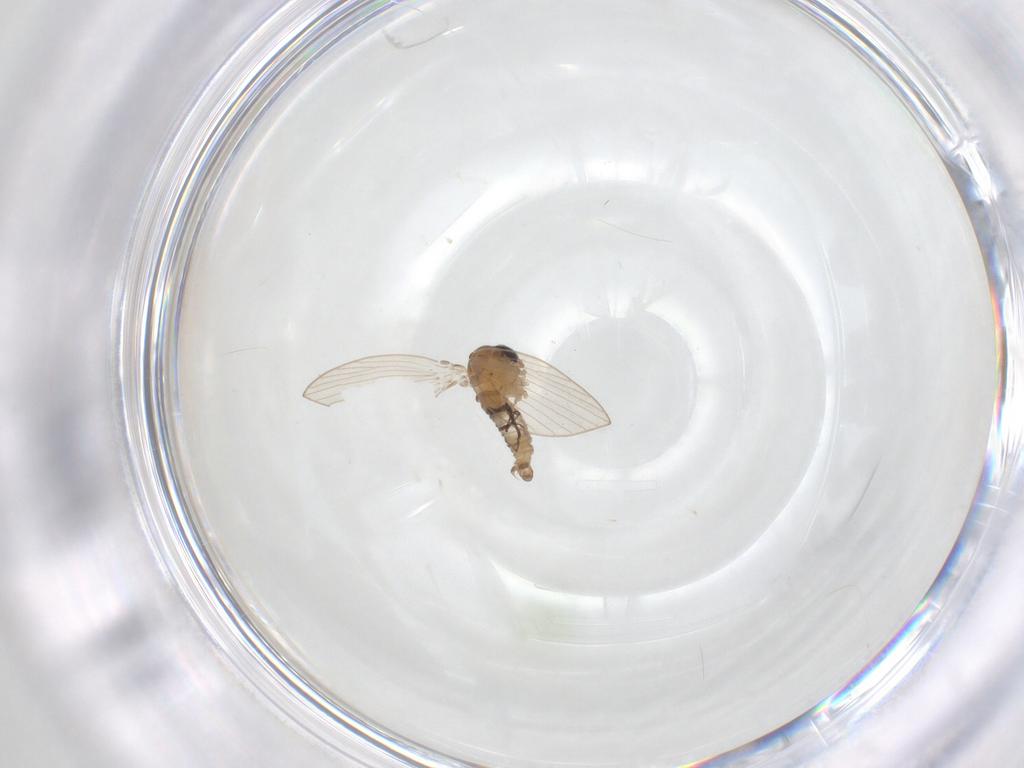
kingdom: Animalia
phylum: Arthropoda
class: Insecta
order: Diptera
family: Psychodidae
